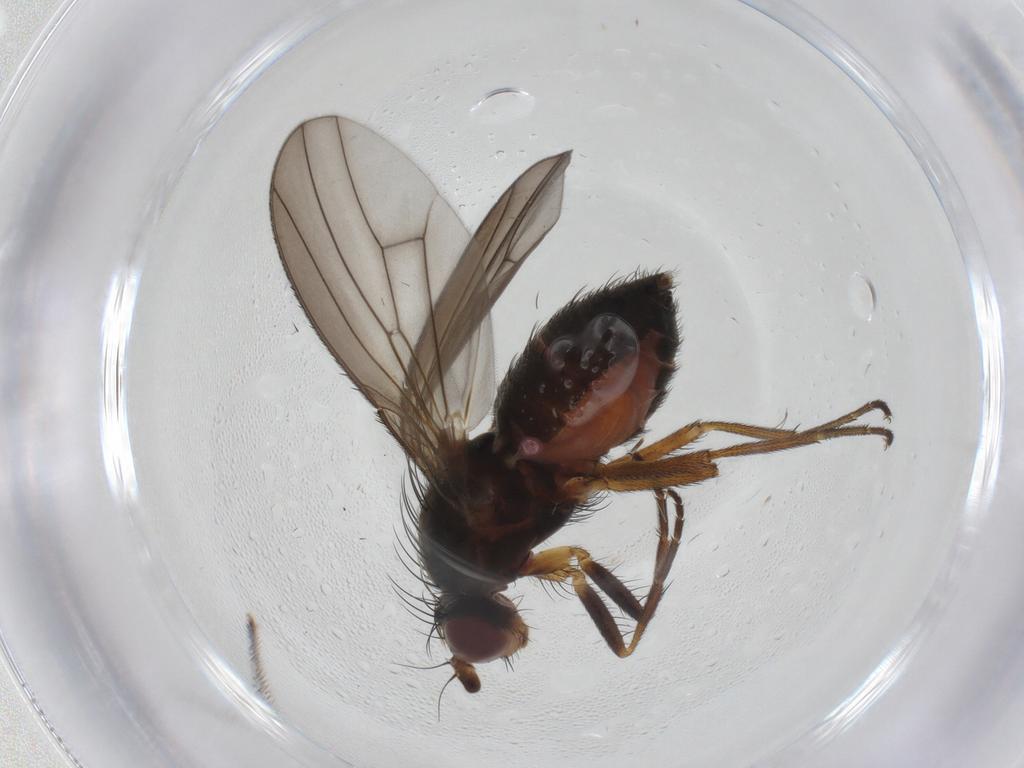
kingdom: Animalia
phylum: Arthropoda
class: Insecta
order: Diptera
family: Heleomyzidae
